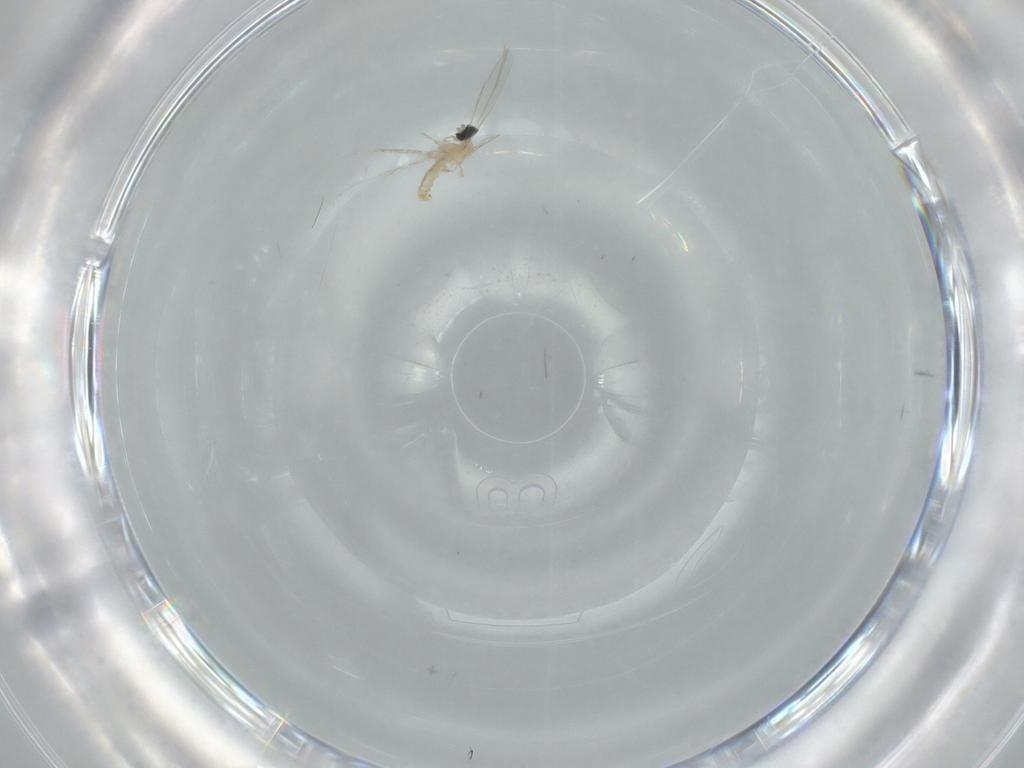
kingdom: Animalia
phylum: Arthropoda
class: Insecta
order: Diptera
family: Cecidomyiidae
